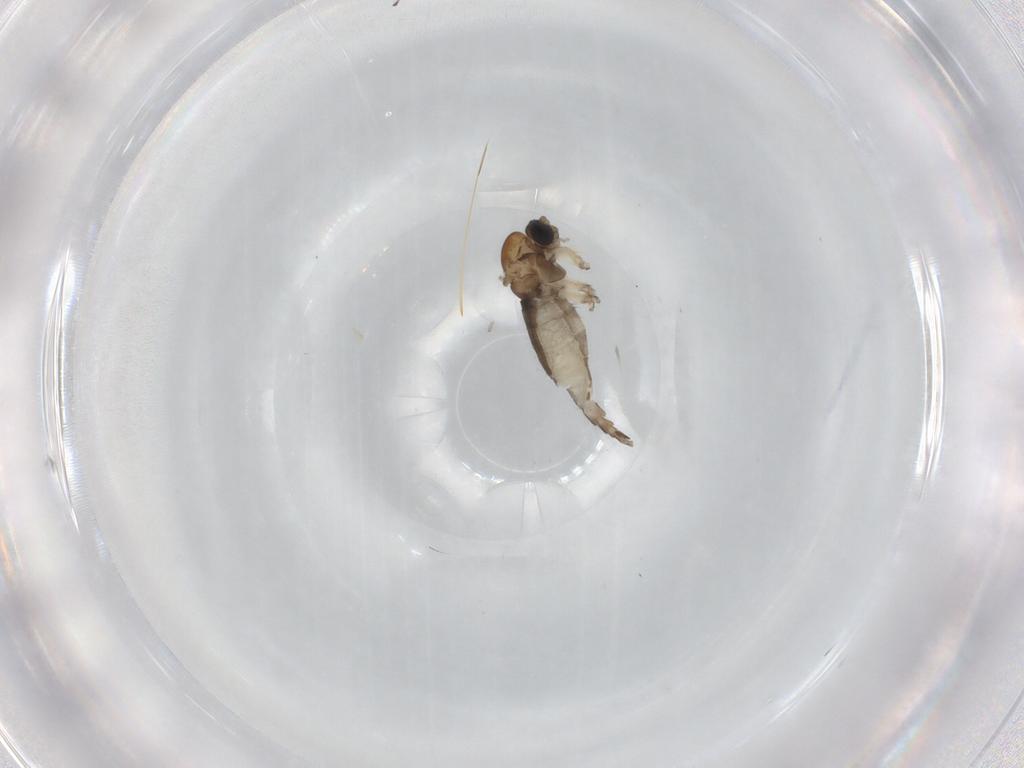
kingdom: Animalia
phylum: Arthropoda
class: Insecta
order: Diptera
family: Sciaridae
